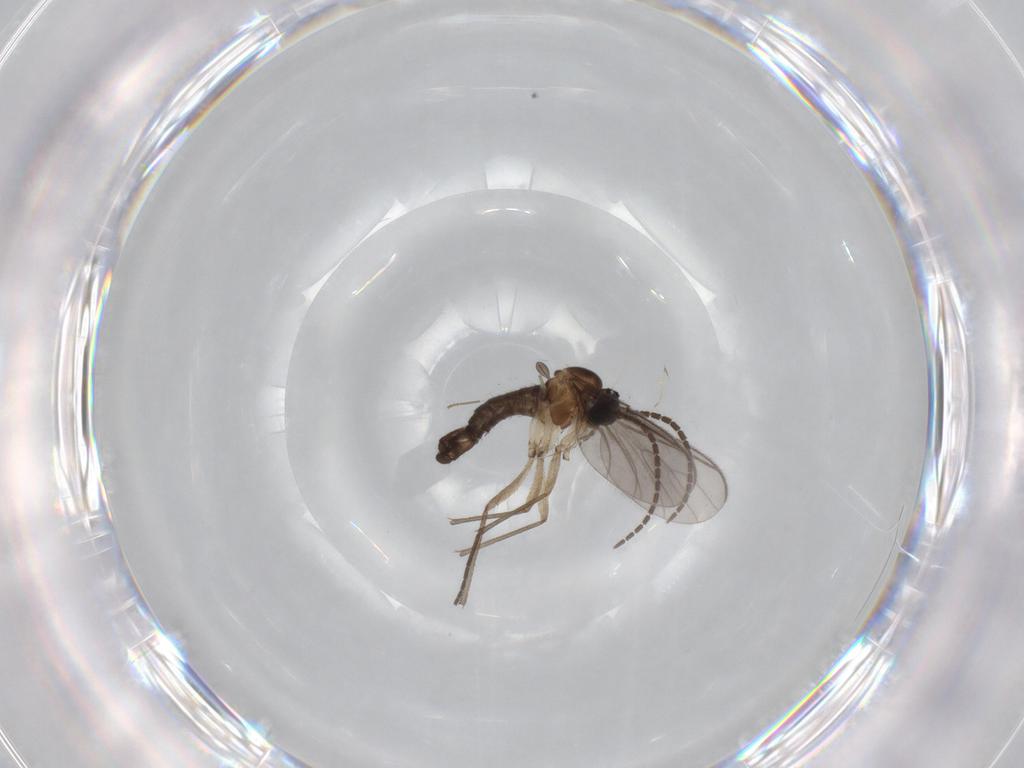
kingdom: Animalia
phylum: Arthropoda
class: Insecta
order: Diptera
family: Sciaridae
